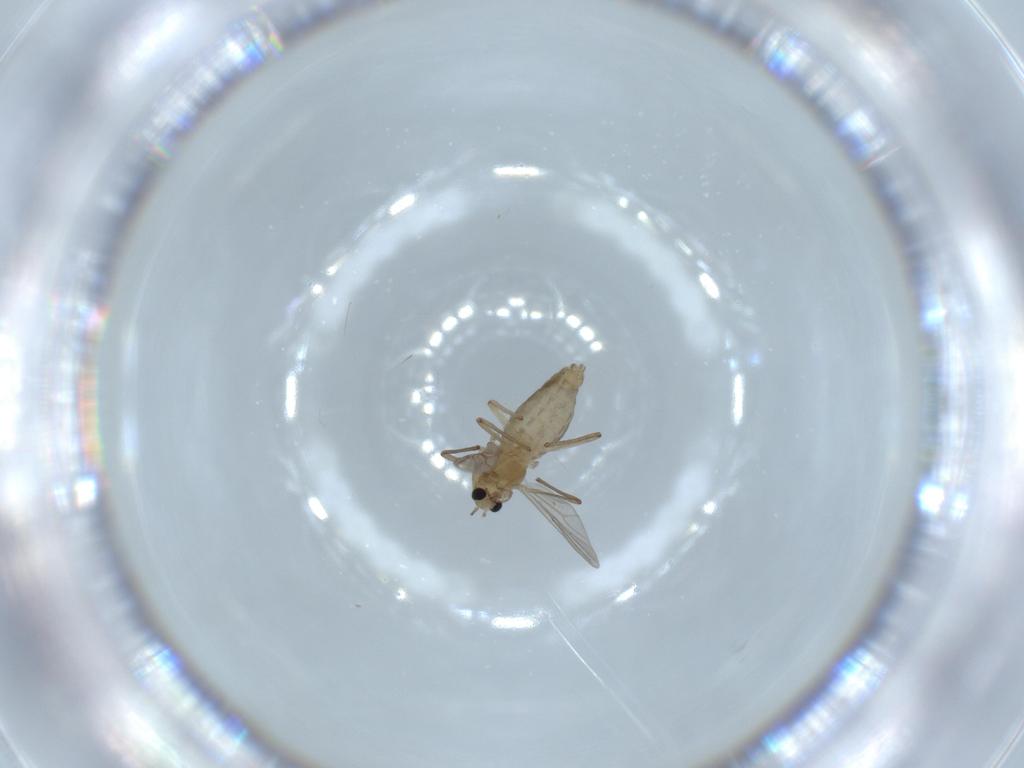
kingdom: Animalia
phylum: Arthropoda
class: Insecta
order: Diptera
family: Chironomidae
